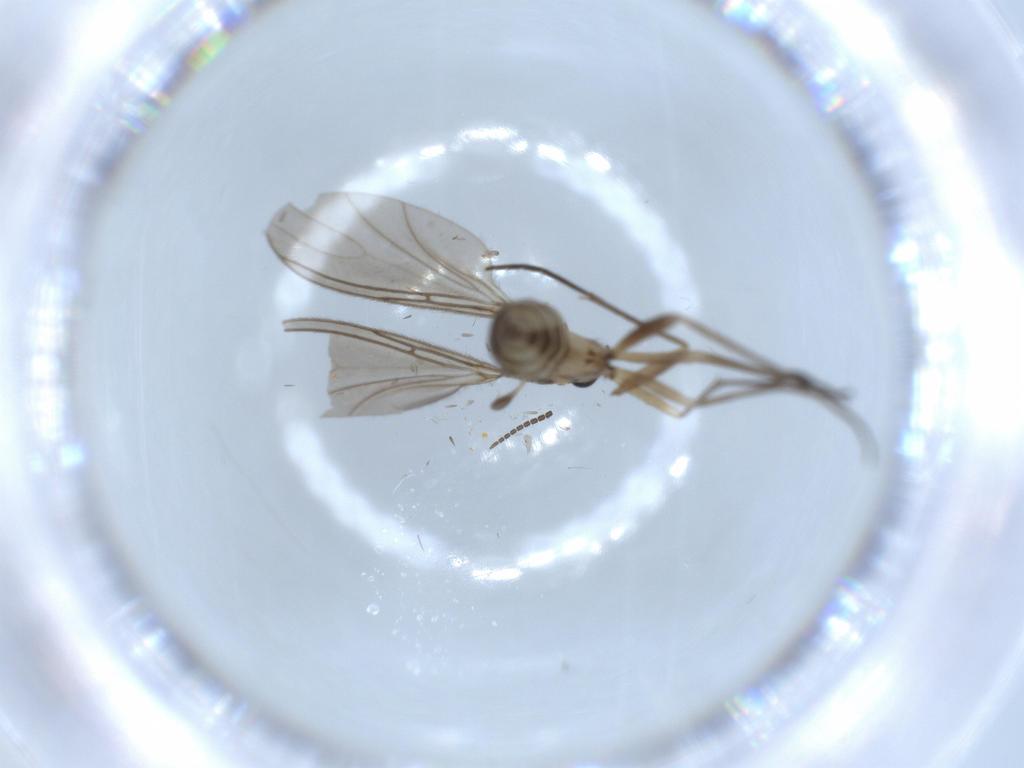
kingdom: Animalia
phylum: Arthropoda
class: Insecta
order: Diptera
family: Sciaridae
